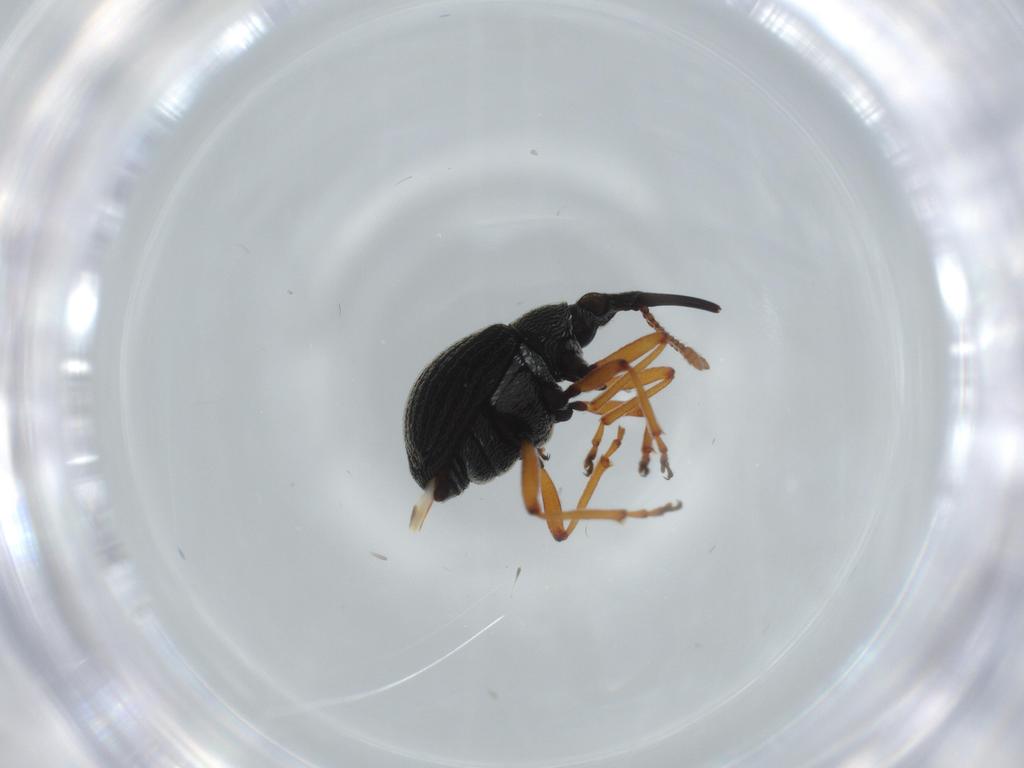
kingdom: Animalia
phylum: Arthropoda
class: Insecta
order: Coleoptera
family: Brentidae
